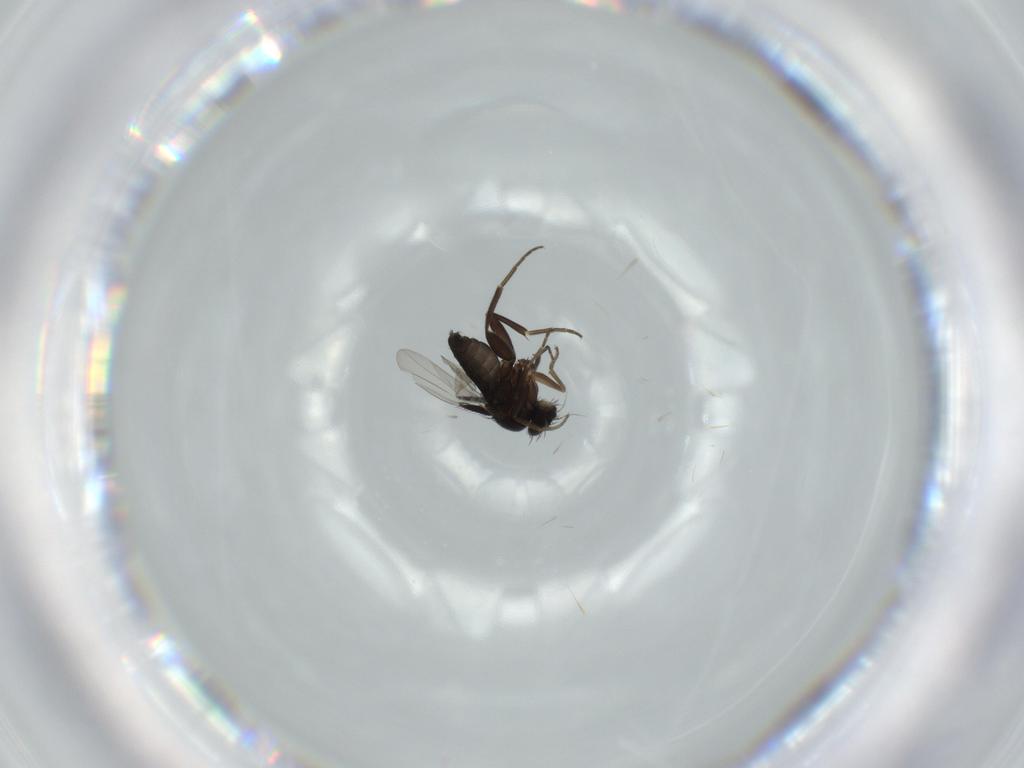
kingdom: Animalia
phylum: Arthropoda
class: Insecta
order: Diptera
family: Phoridae
